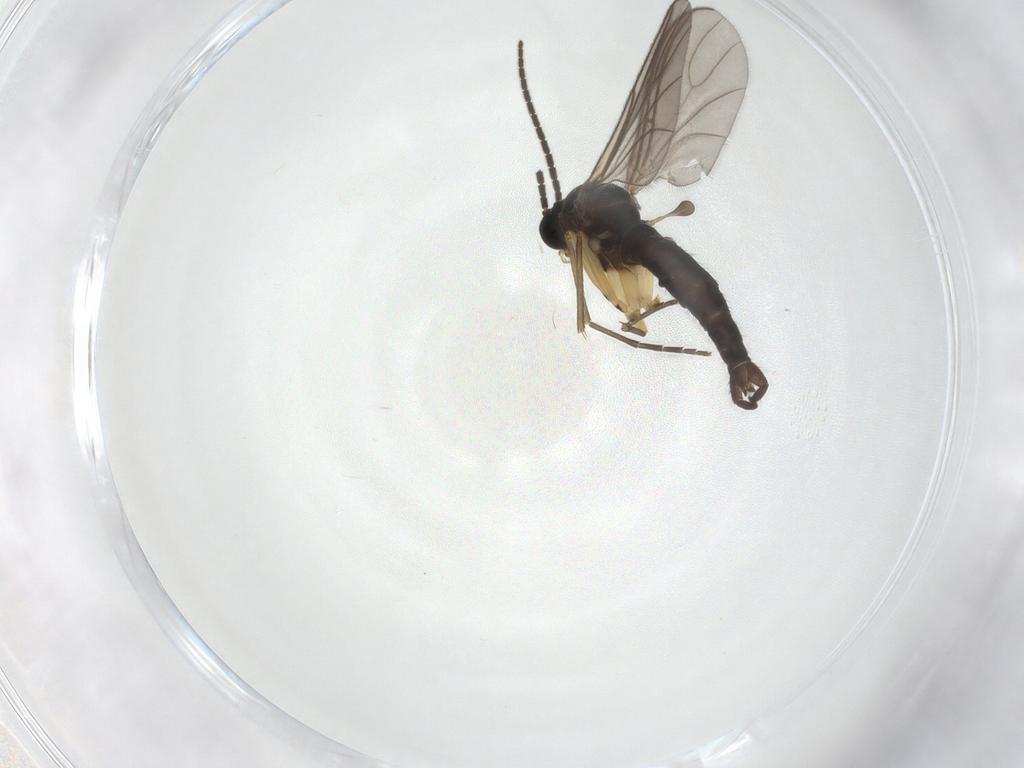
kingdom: Animalia
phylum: Arthropoda
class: Insecta
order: Diptera
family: Sciaridae
